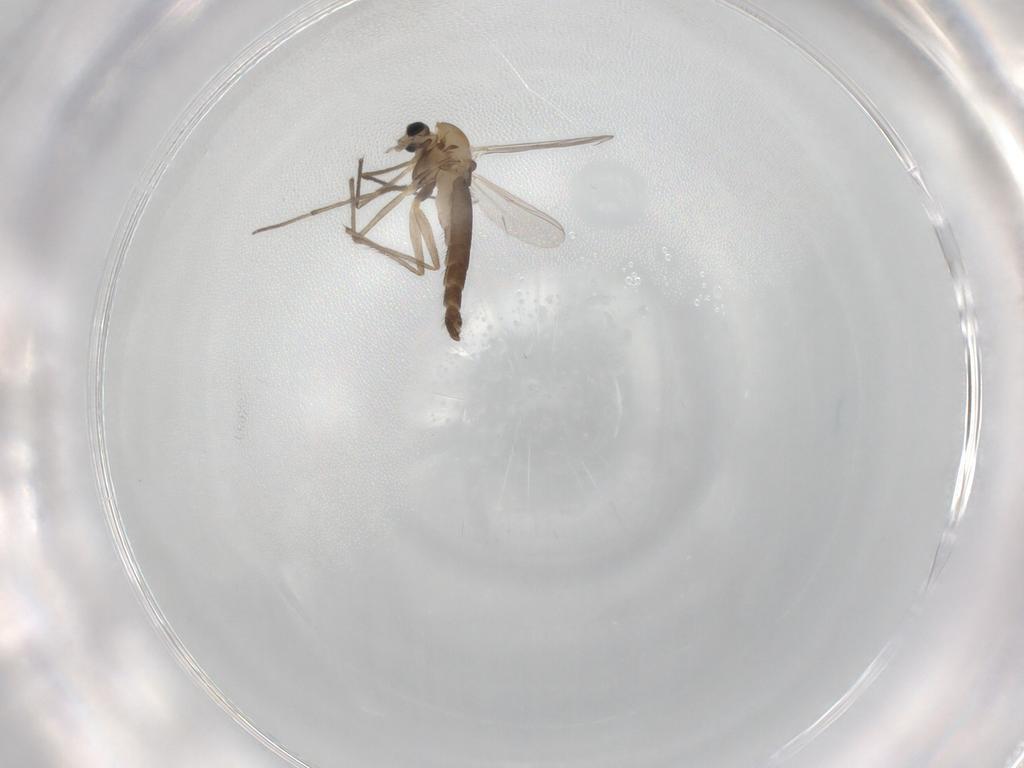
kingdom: Animalia
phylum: Arthropoda
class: Insecta
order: Diptera
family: Chironomidae
